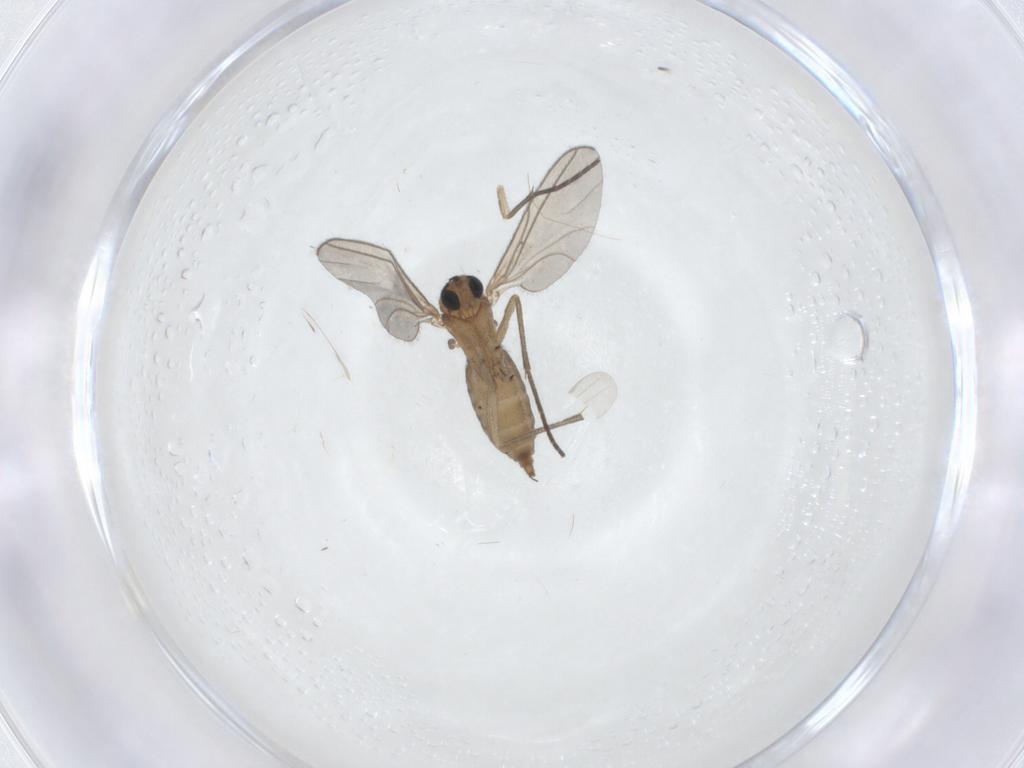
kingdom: Animalia
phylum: Arthropoda
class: Insecta
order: Diptera
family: Sciaridae
